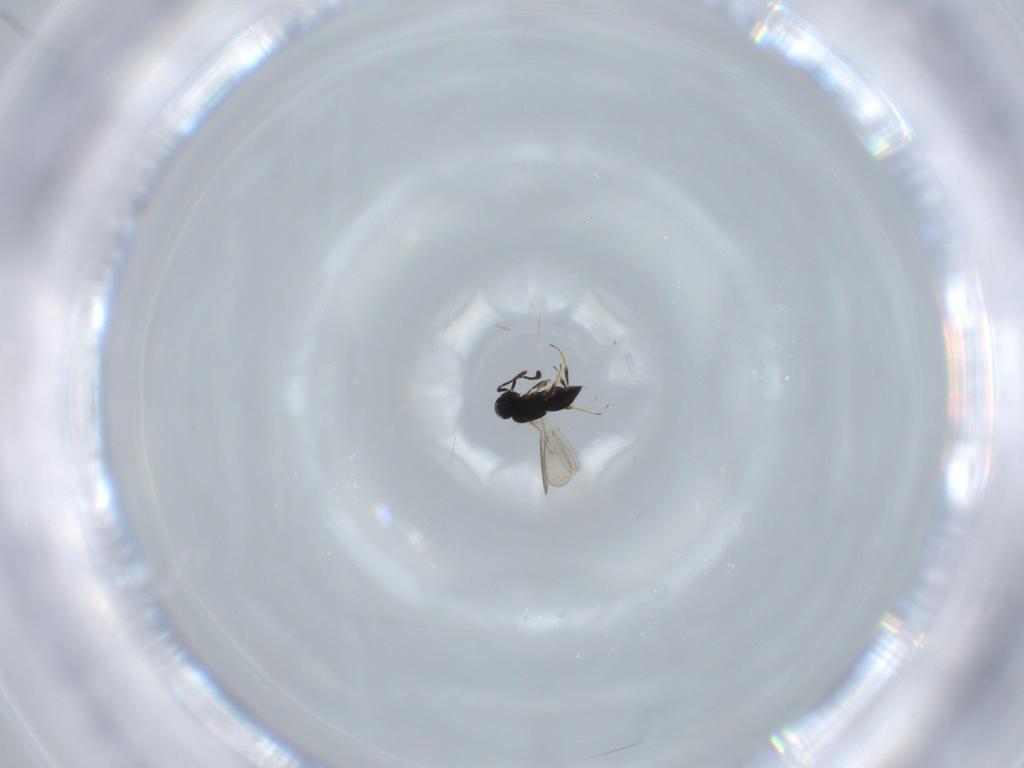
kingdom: Animalia
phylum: Arthropoda
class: Insecta
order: Hymenoptera
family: Scelionidae
